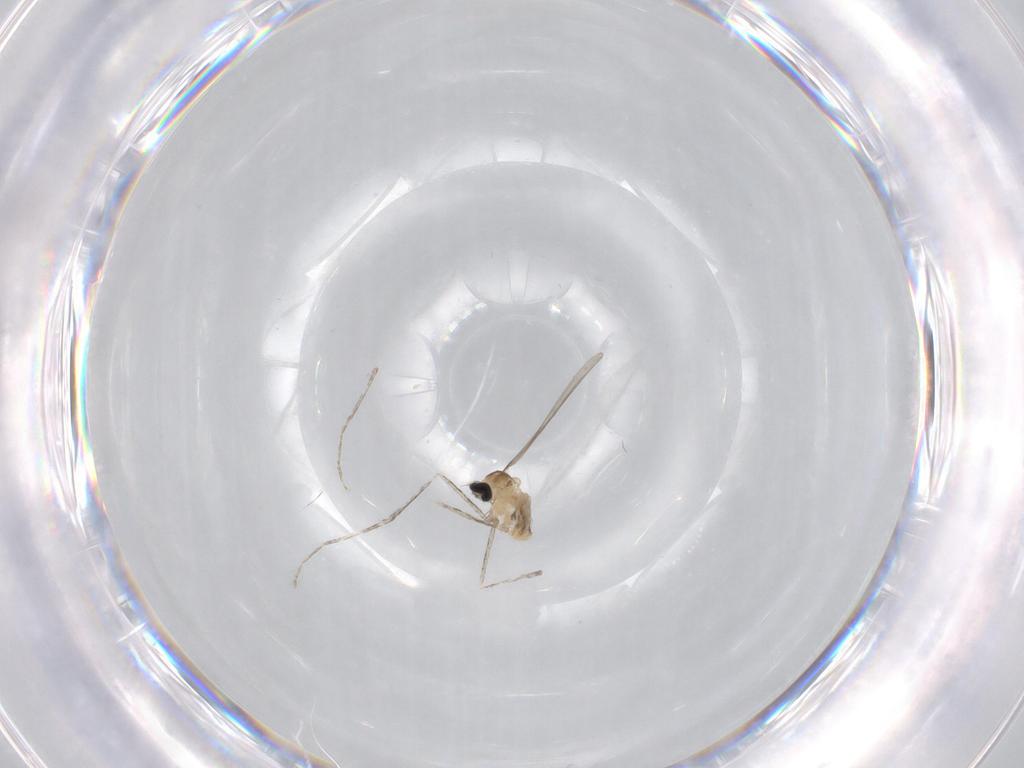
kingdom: Animalia
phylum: Arthropoda
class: Insecta
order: Diptera
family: Cecidomyiidae
